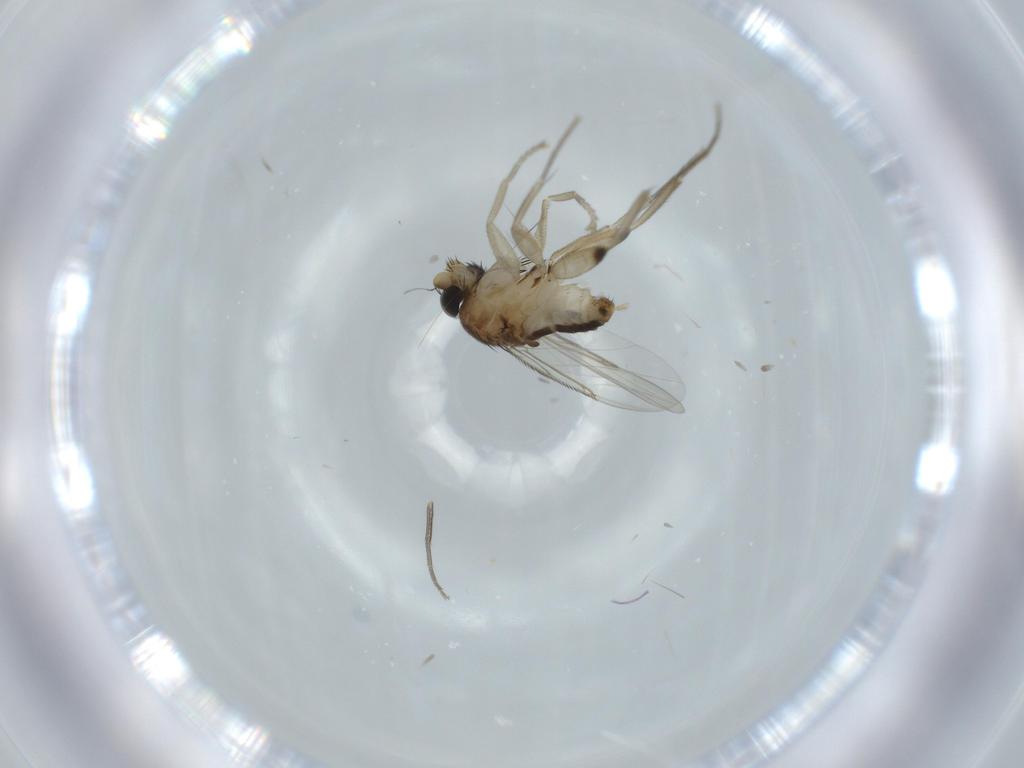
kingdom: Animalia
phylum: Arthropoda
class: Insecta
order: Diptera
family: Phoridae
